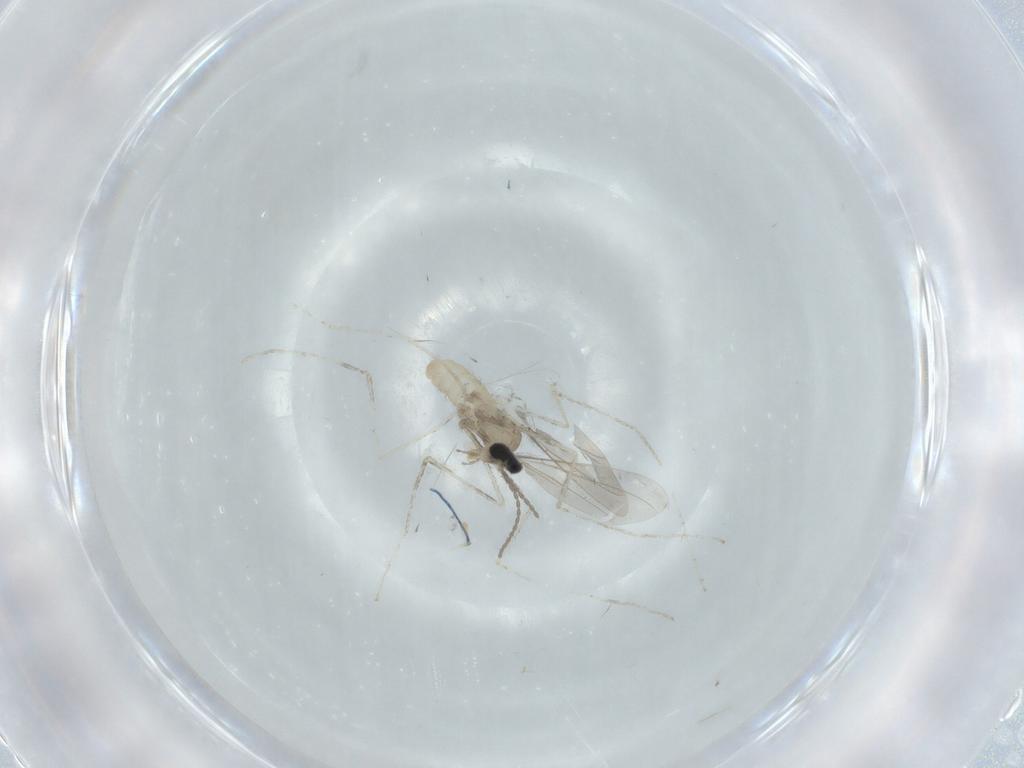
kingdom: Animalia
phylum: Arthropoda
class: Insecta
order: Diptera
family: Cecidomyiidae
